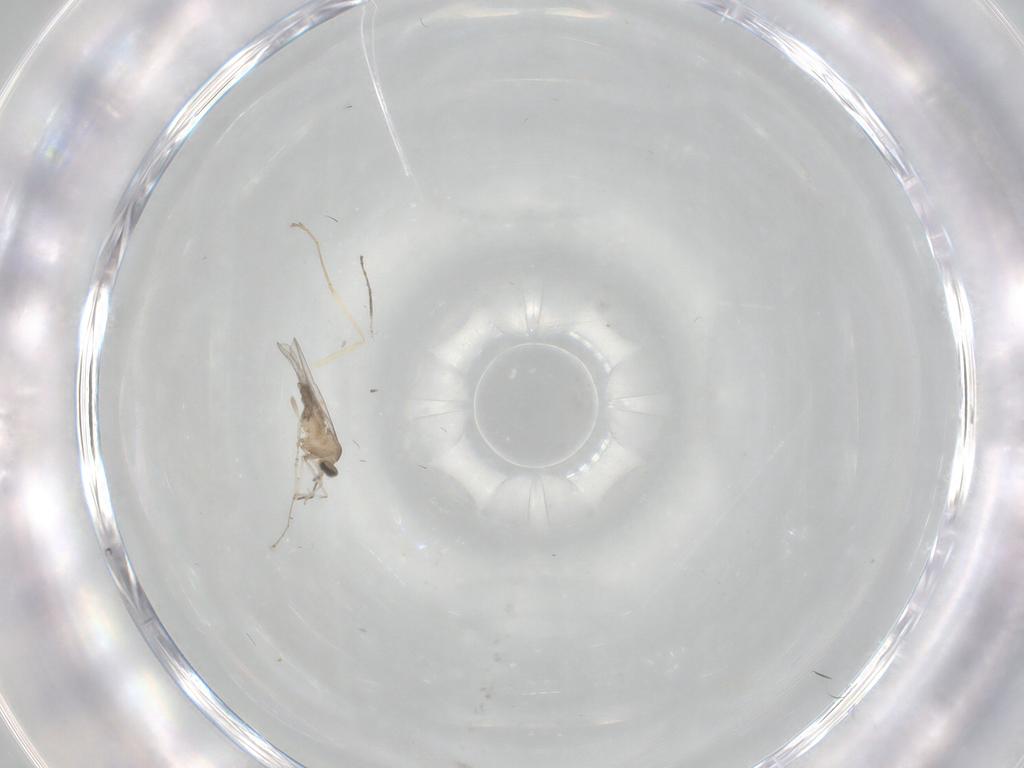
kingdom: Animalia
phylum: Arthropoda
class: Insecta
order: Diptera
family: Cecidomyiidae
